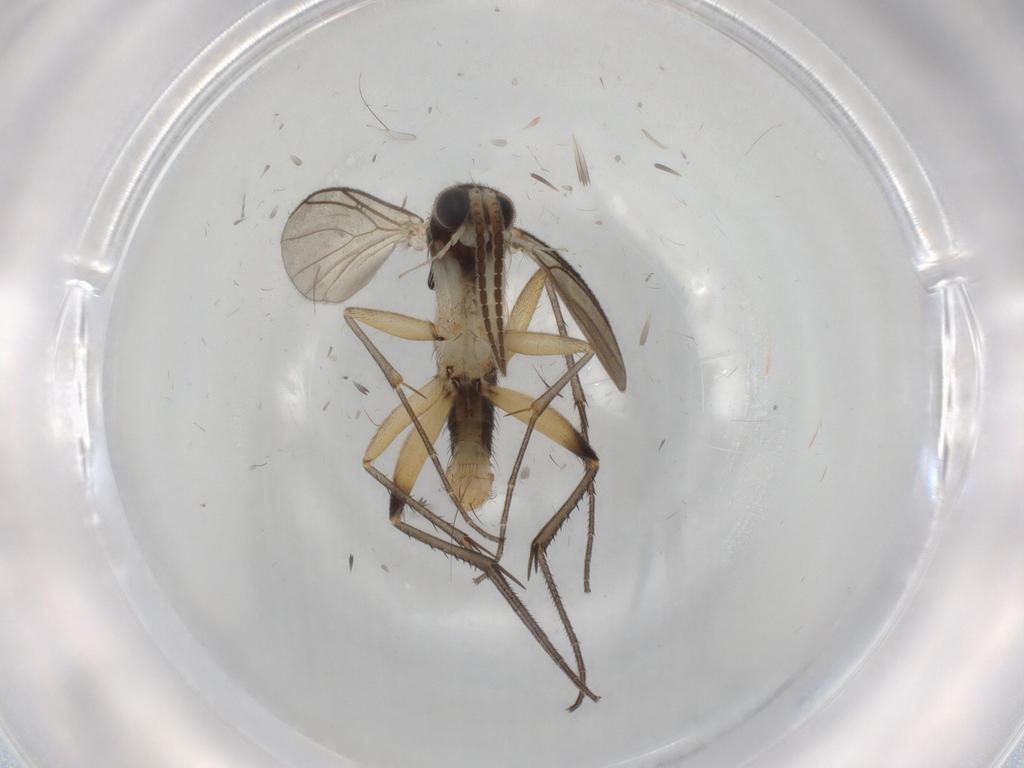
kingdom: Animalia
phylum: Arthropoda
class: Insecta
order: Diptera
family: Mycetophilidae
